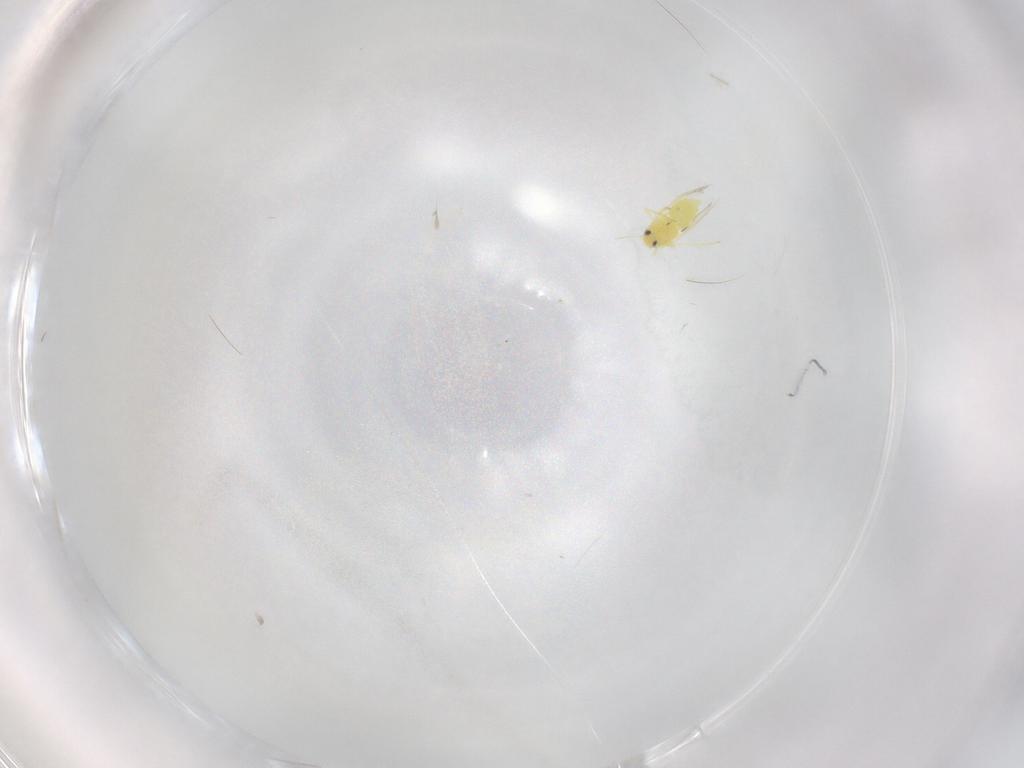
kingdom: Animalia
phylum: Arthropoda
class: Insecta
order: Hemiptera
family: Aleyrodidae
